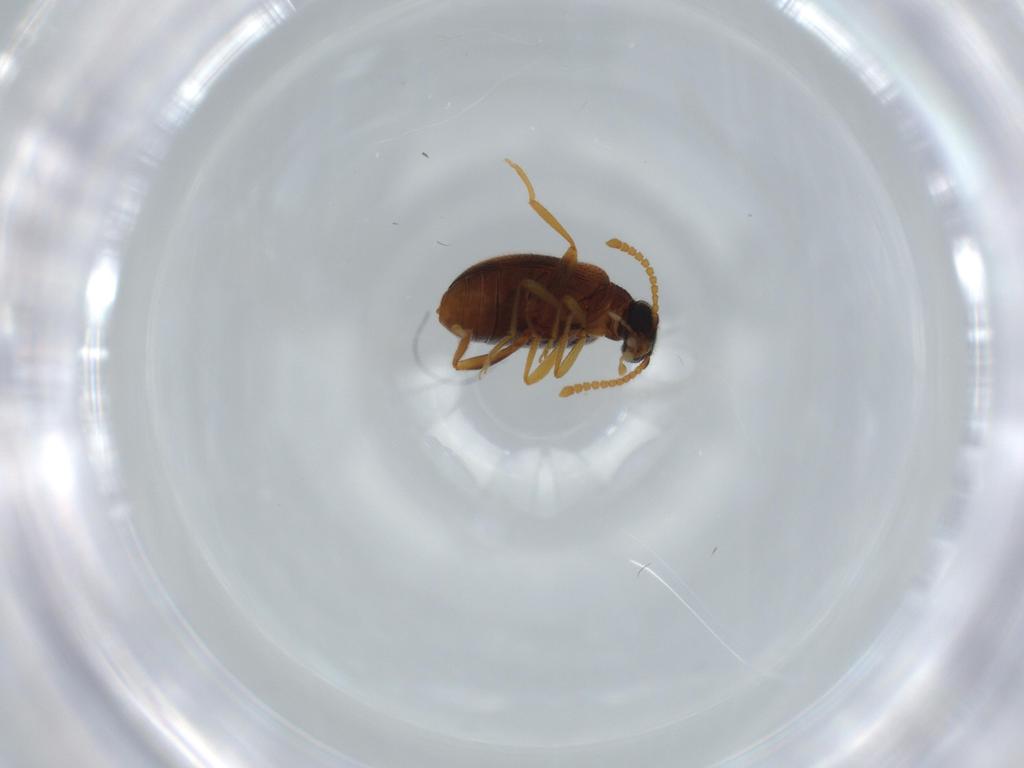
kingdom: Animalia
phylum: Arthropoda
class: Insecta
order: Coleoptera
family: Aderidae
